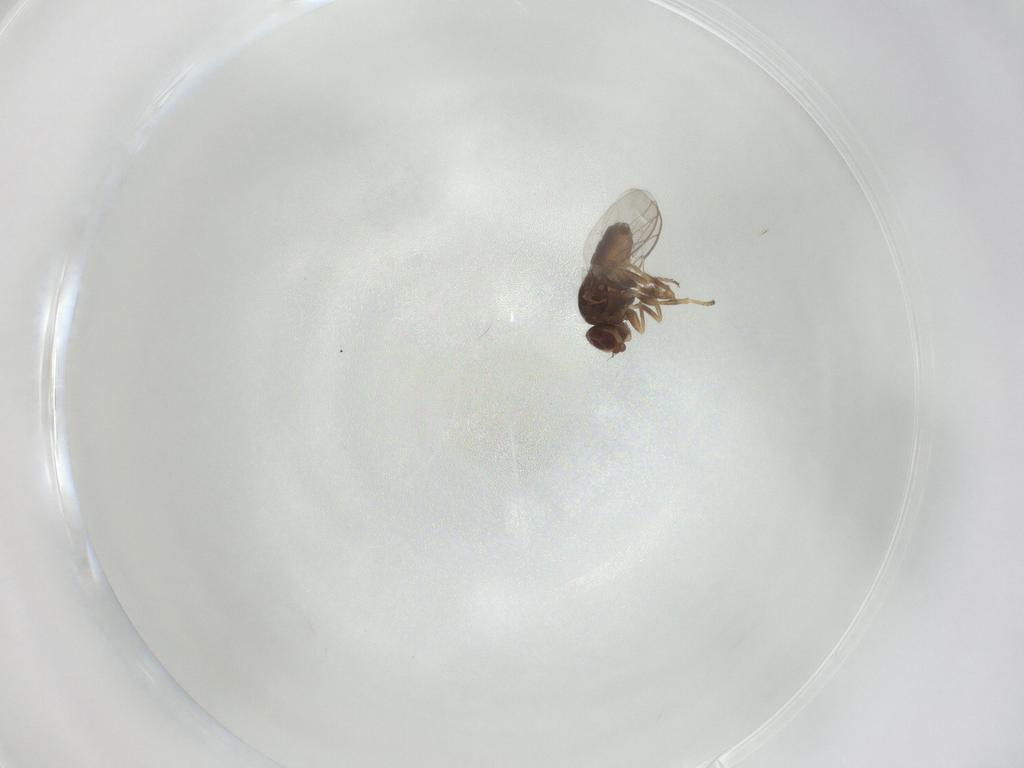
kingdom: Animalia
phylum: Arthropoda
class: Insecta
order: Diptera
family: Chloropidae
